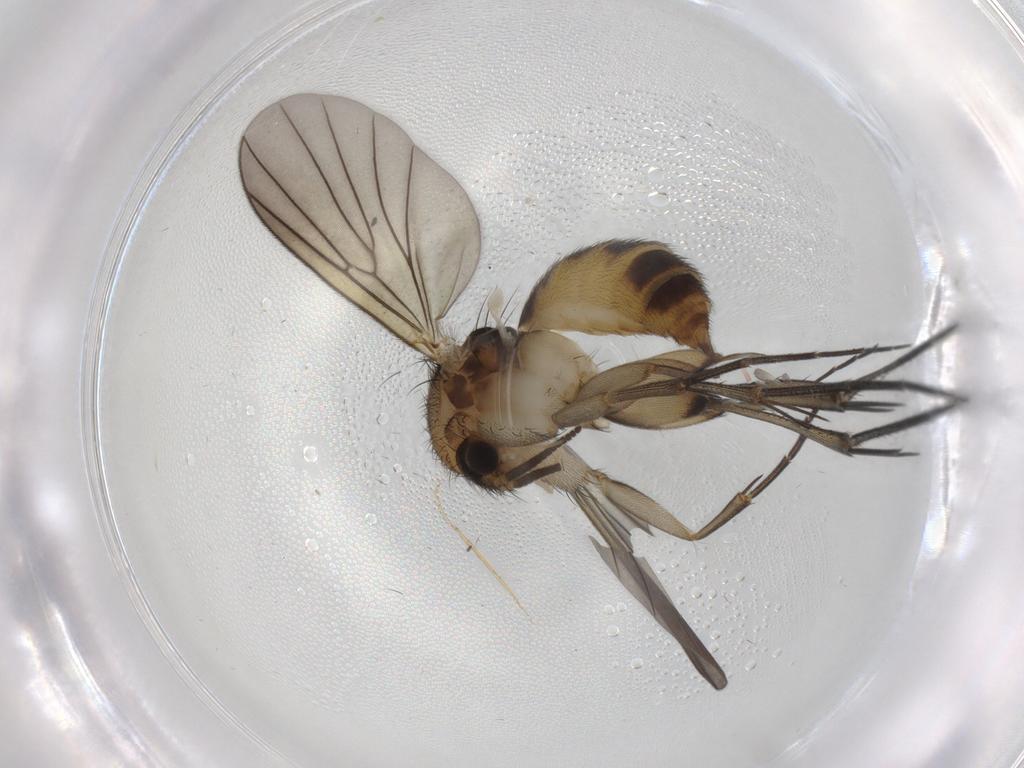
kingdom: Animalia
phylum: Arthropoda
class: Insecta
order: Diptera
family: Mycetophilidae
